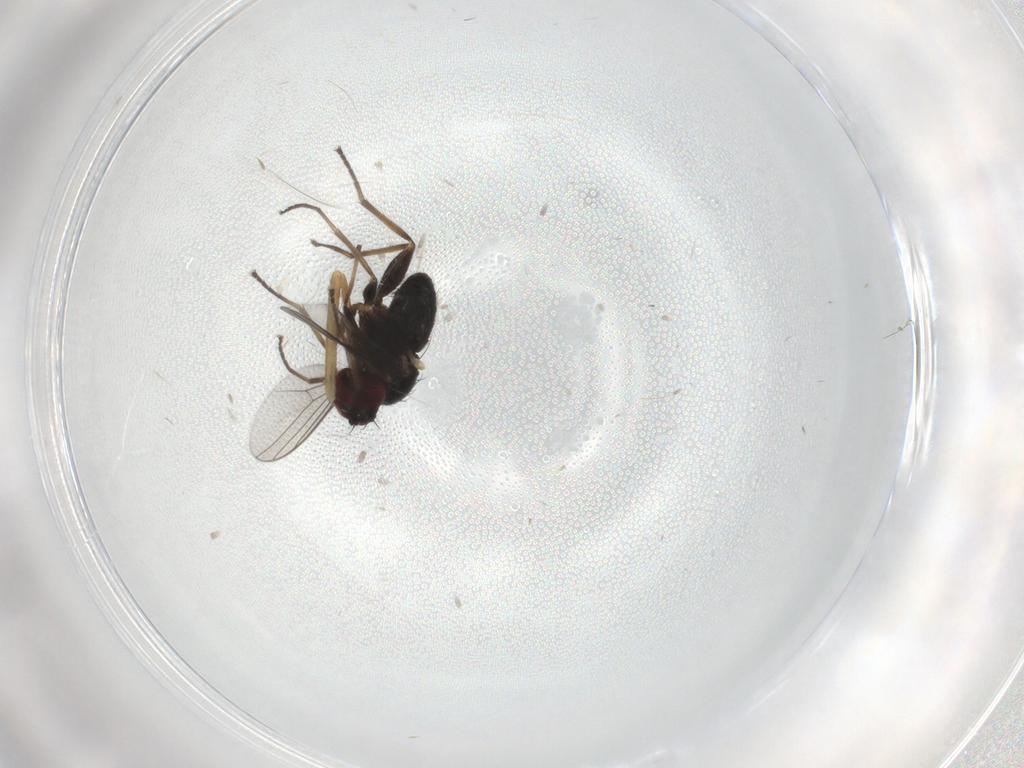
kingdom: Animalia
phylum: Arthropoda
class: Insecta
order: Diptera
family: Dolichopodidae
